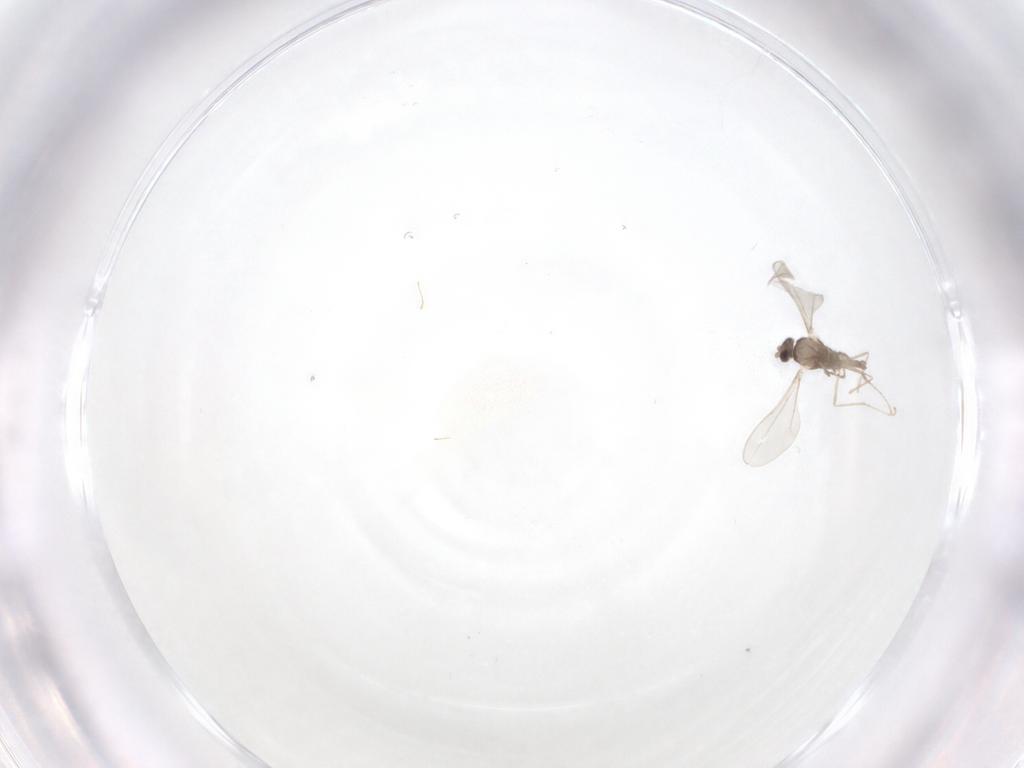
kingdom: Animalia
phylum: Arthropoda
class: Insecta
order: Diptera
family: Cecidomyiidae
